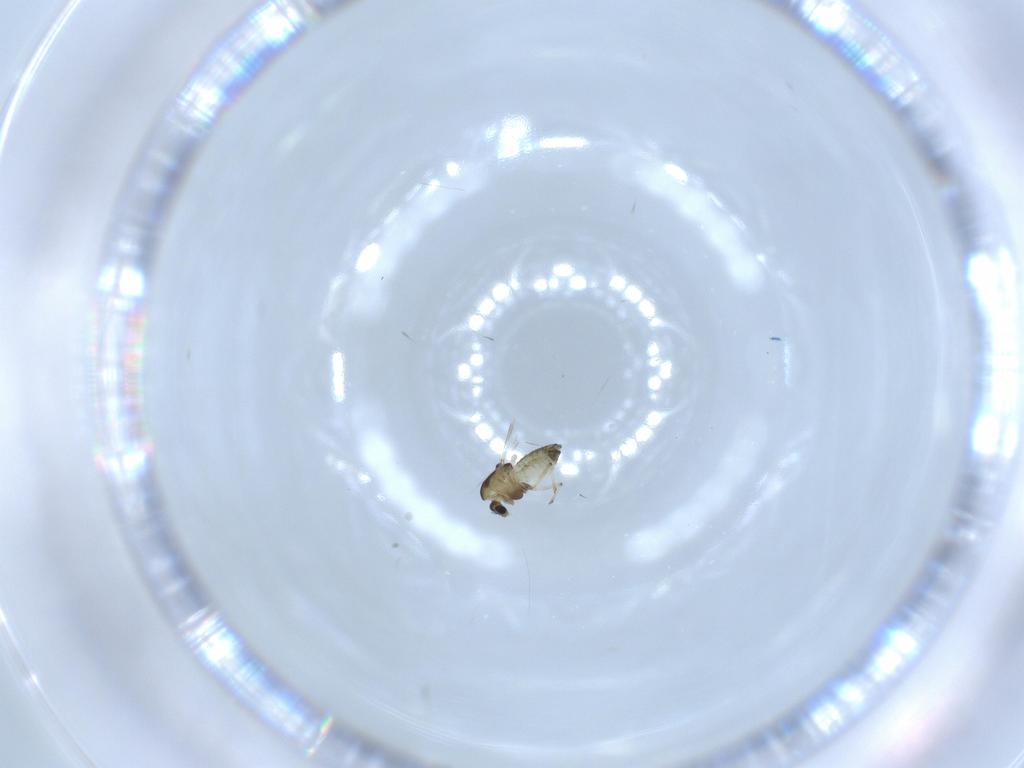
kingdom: Animalia
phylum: Arthropoda
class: Insecta
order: Diptera
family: Chironomidae
